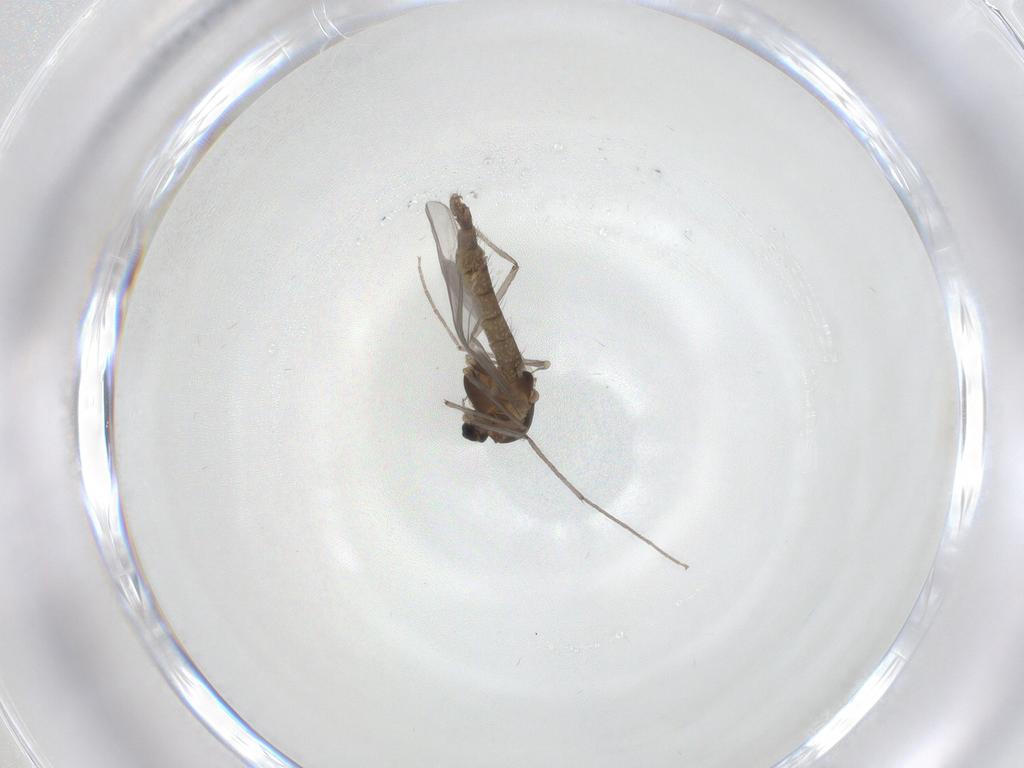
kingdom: Animalia
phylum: Arthropoda
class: Insecta
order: Diptera
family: Chironomidae
